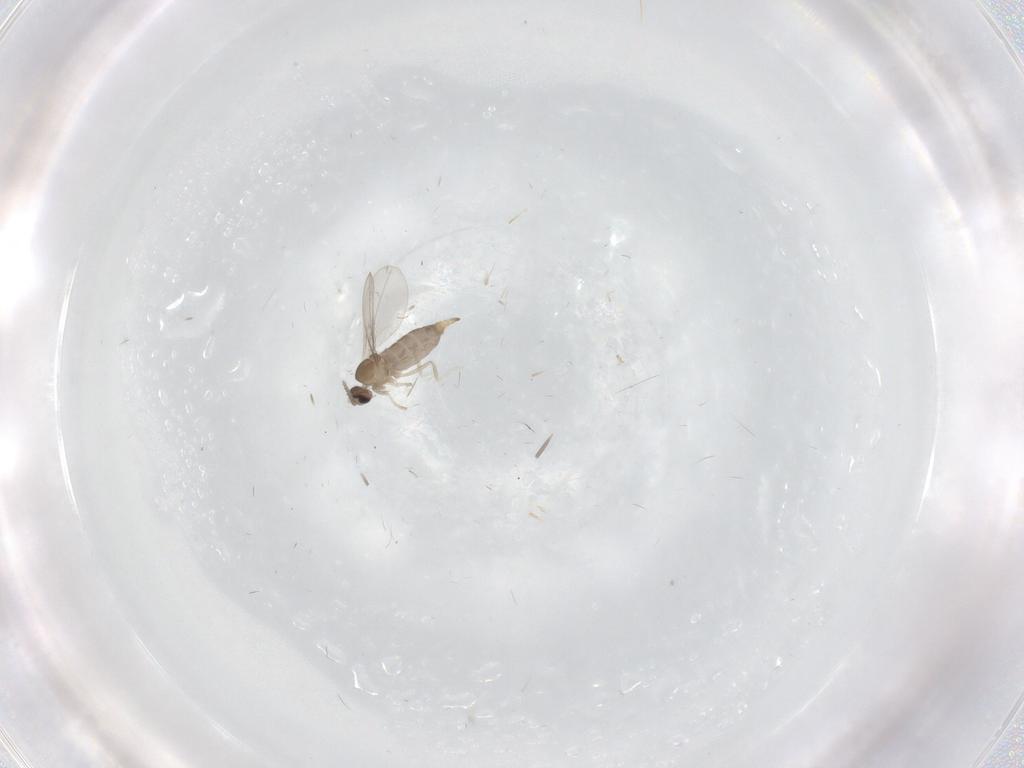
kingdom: Animalia
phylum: Arthropoda
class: Insecta
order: Diptera
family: Cecidomyiidae
